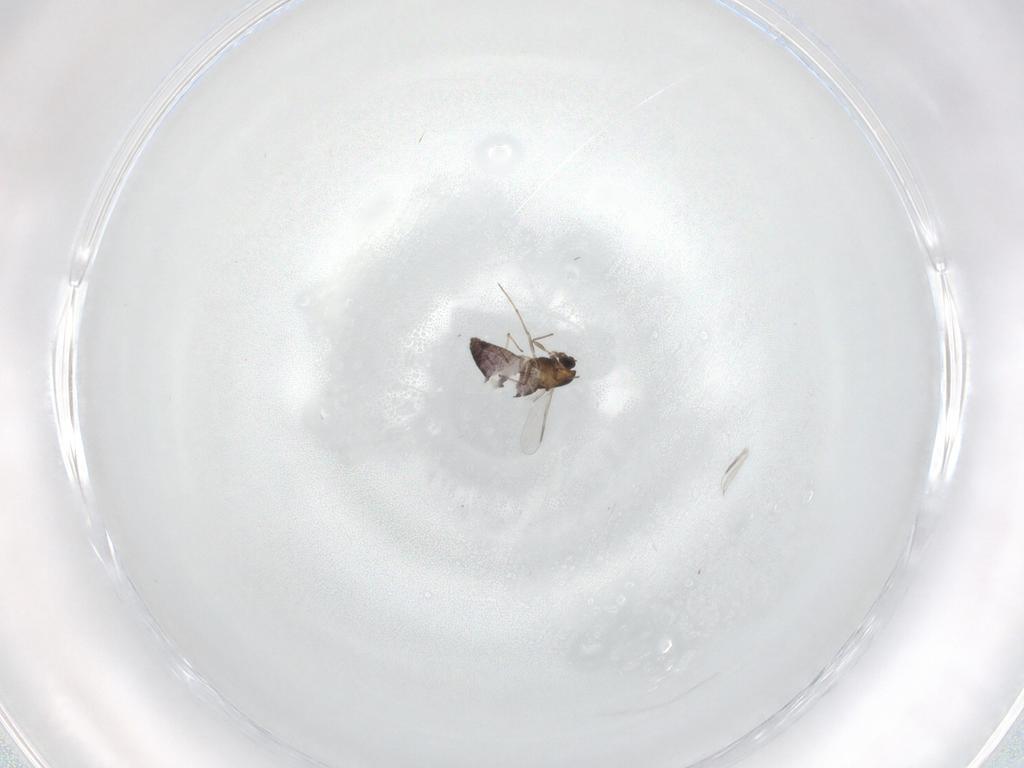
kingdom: Animalia
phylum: Arthropoda
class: Insecta
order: Diptera
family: Chironomidae
